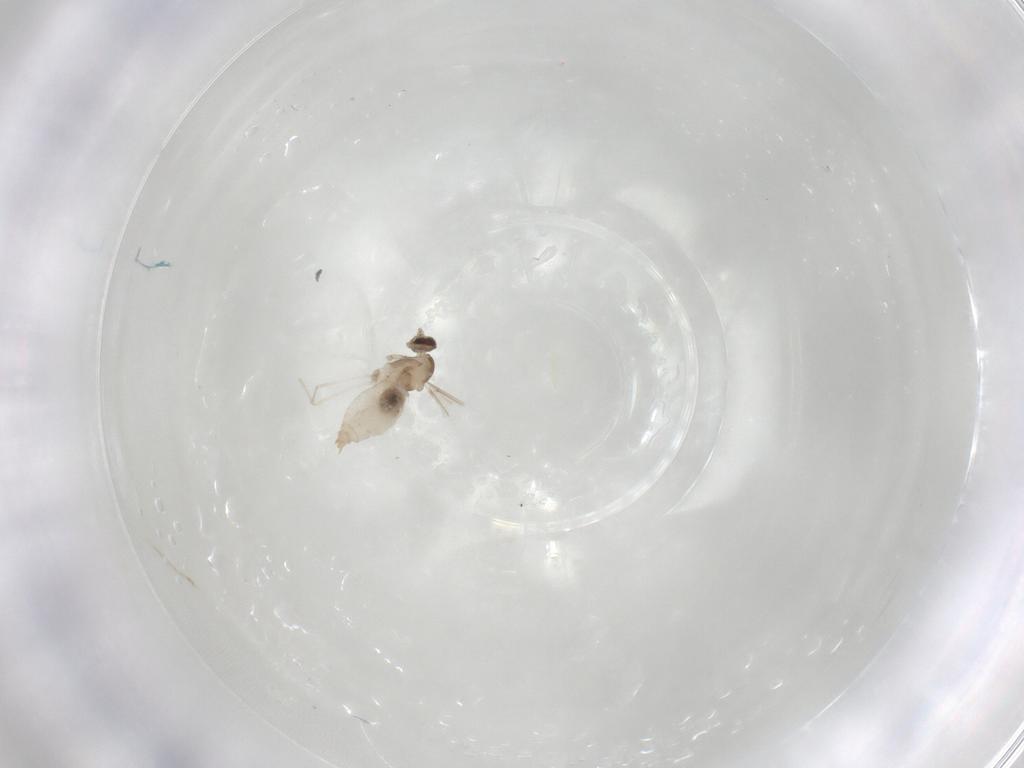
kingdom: Animalia
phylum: Arthropoda
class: Insecta
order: Diptera
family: Cecidomyiidae
